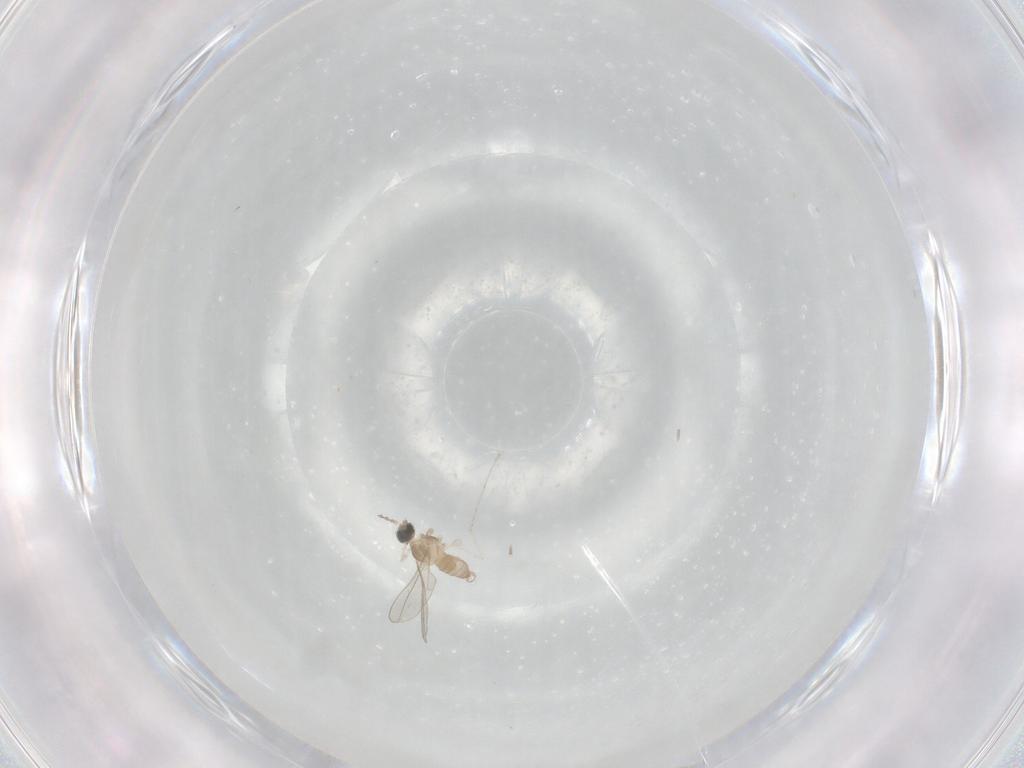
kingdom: Animalia
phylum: Arthropoda
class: Insecta
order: Diptera
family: Cecidomyiidae
